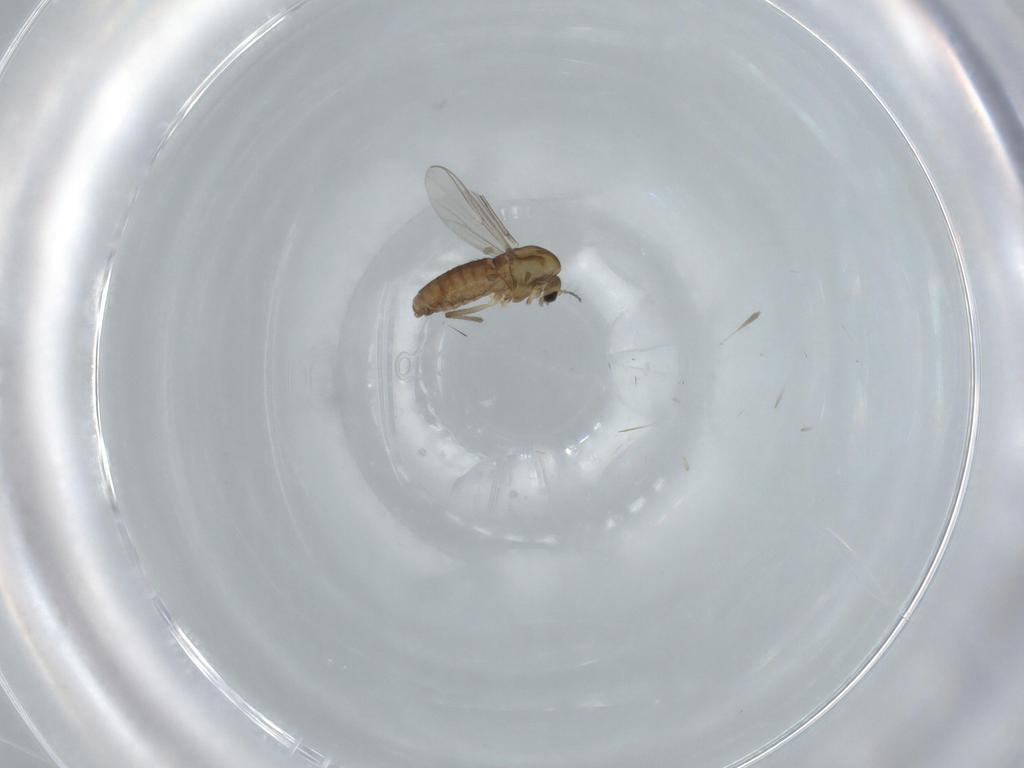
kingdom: Animalia
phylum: Arthropoda
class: Insecta
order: Diptera
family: Chironomidae
